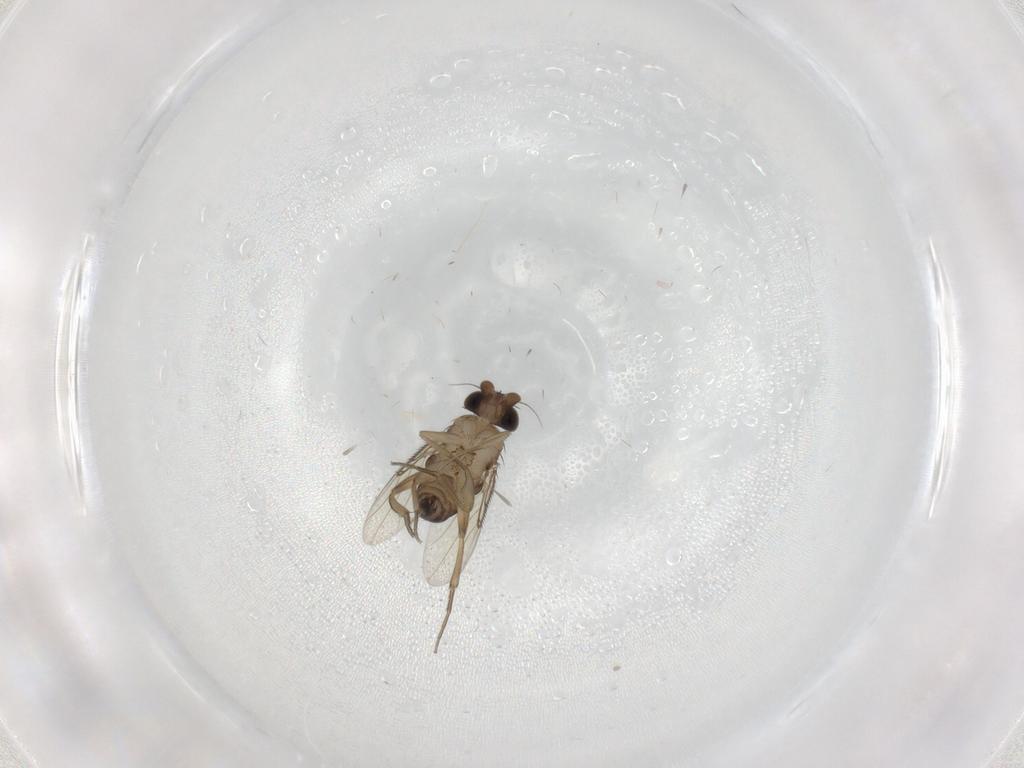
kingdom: Animalia
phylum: Arthropoda
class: Insecta
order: Diptera
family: Phoridae
